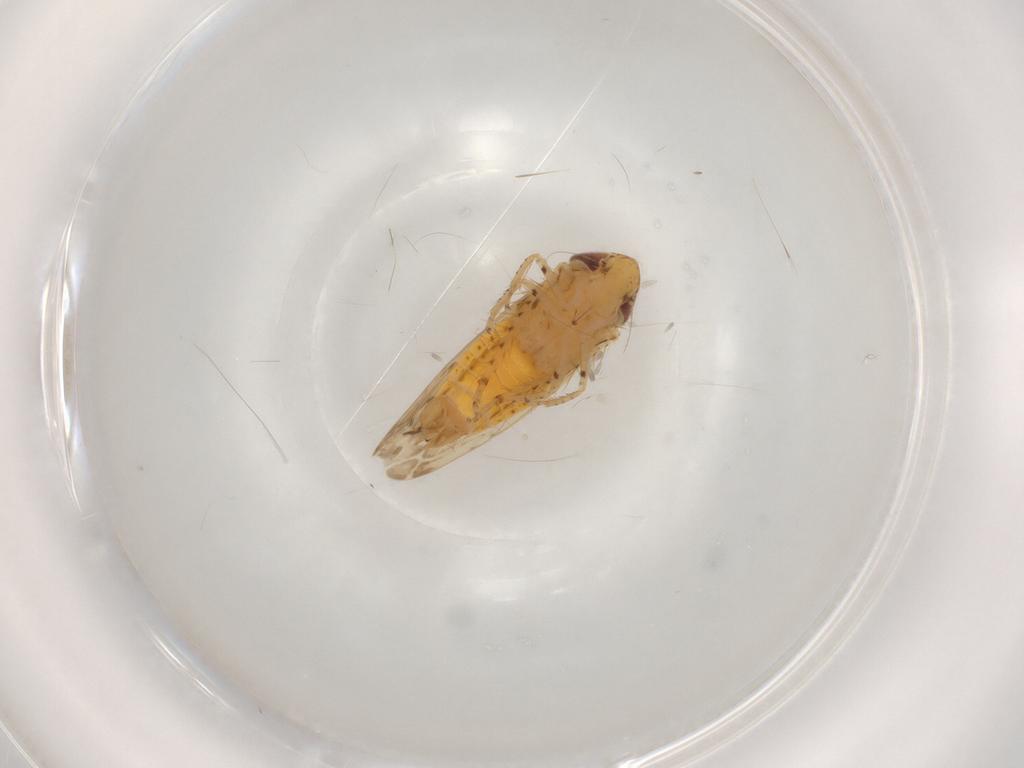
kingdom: Animalia
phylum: Arthropoda
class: Insecta
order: Hemiptera
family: Cicadellidae
